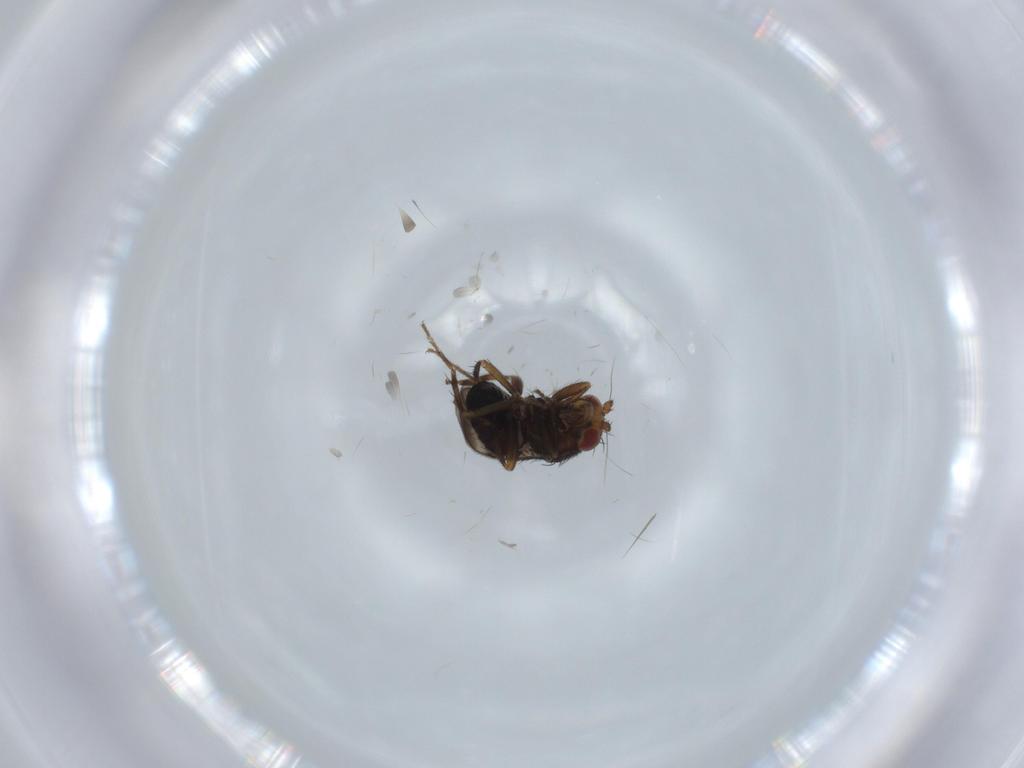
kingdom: Animalia
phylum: Arthropoda
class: Insecta
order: Diptera
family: Sphaeroceridae
